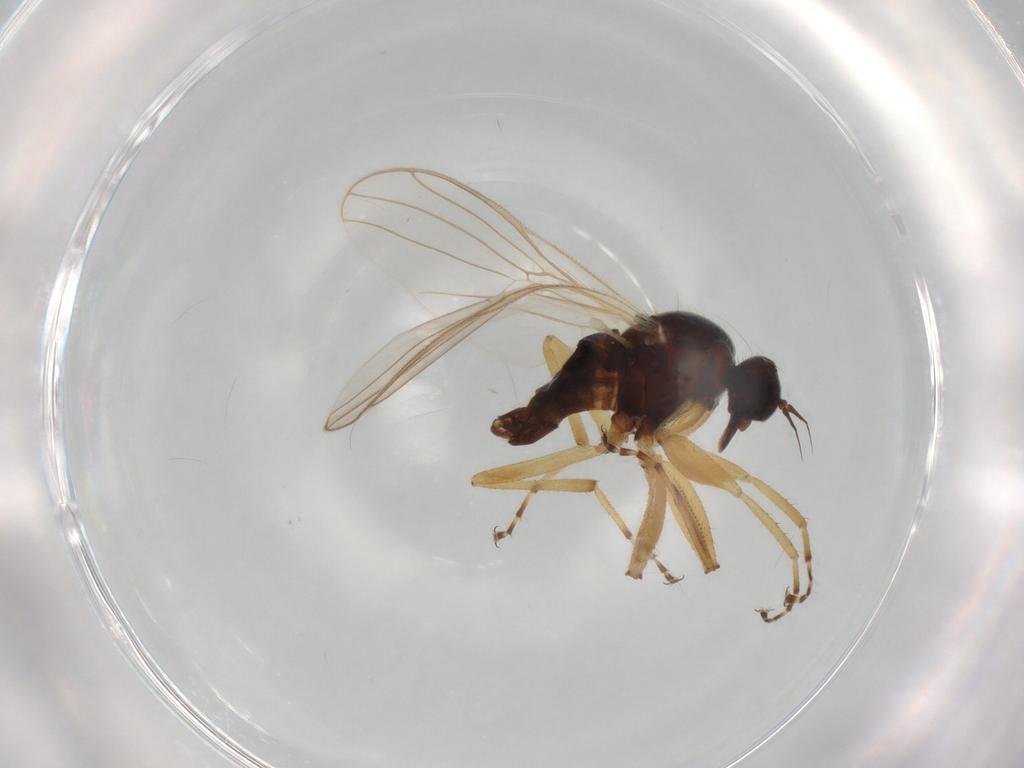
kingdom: Animalia
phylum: Arthropoda
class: Insecta
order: Diptera
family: Hybotidae
